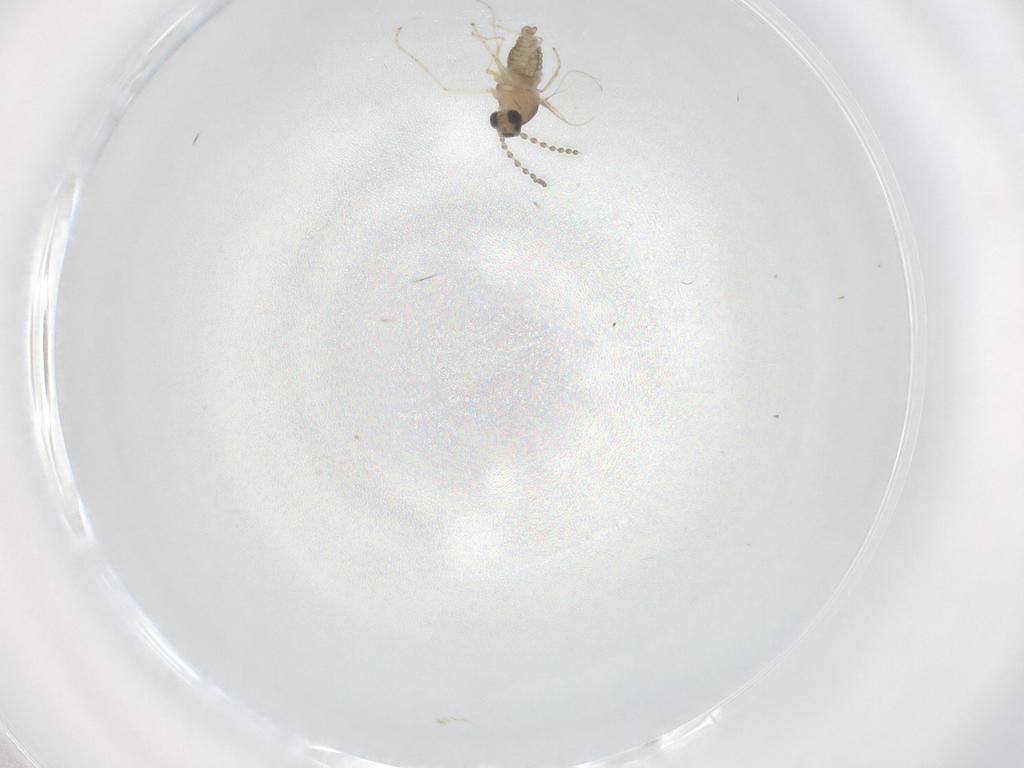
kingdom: Animalia
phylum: Arthropoda
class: Insecta
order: Diptera
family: Cecidomyiidae
